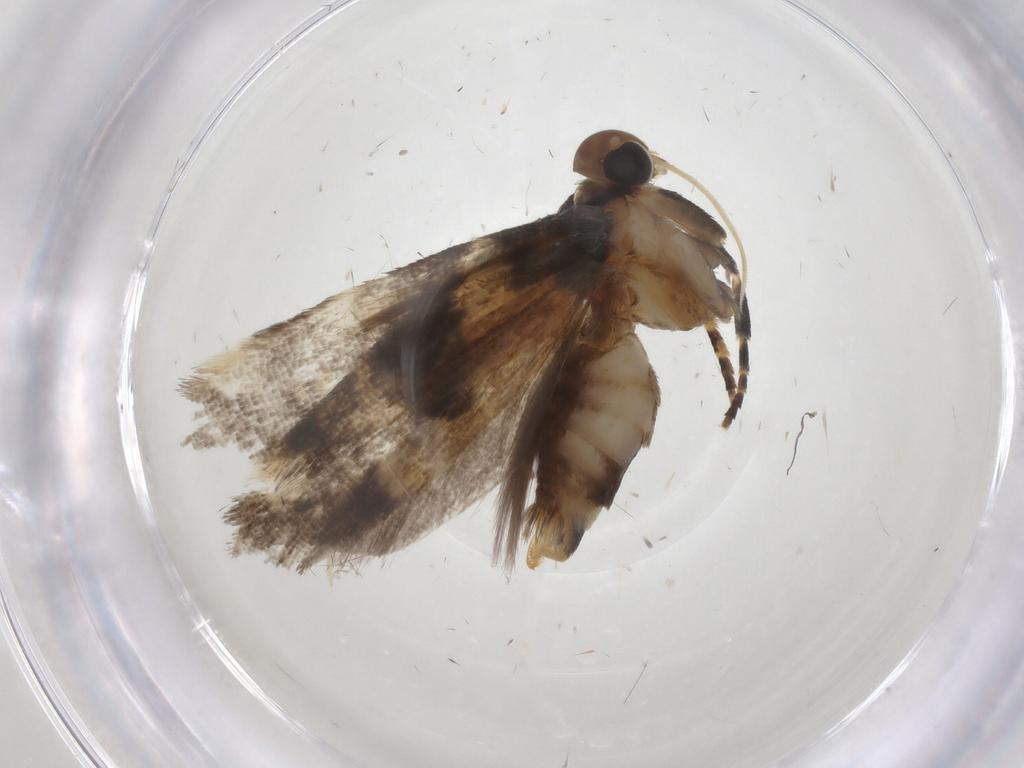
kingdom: Animalia
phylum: Arthropoda
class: Insecta
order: Lepidoptera
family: Gelechiidae
